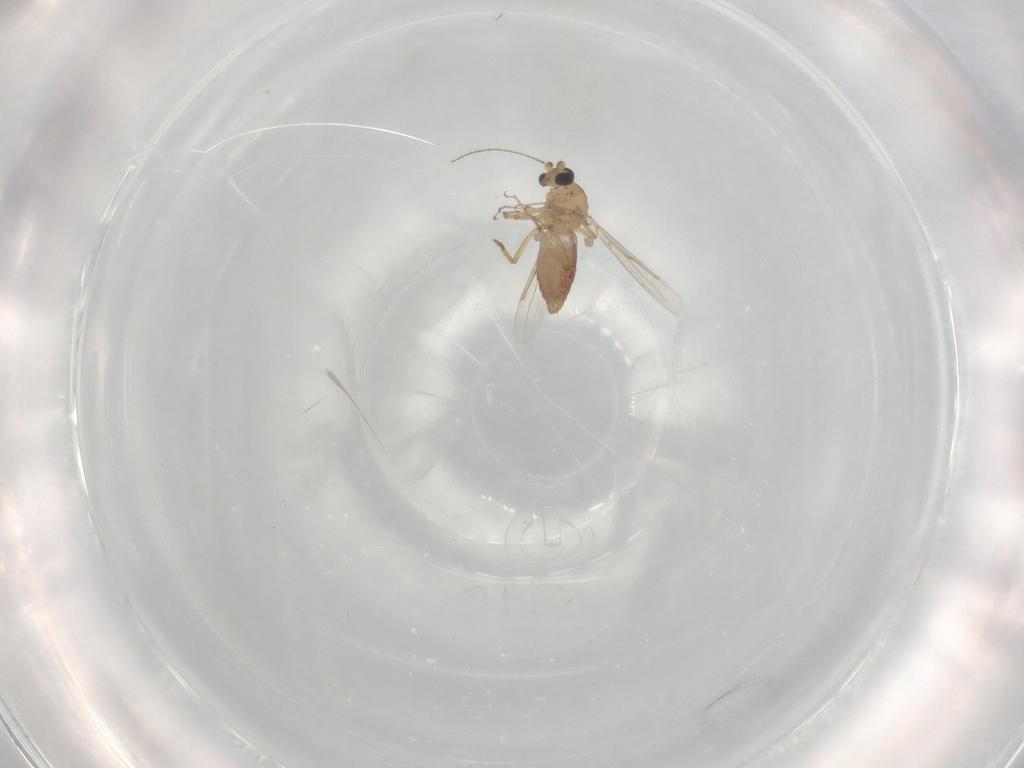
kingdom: Animalia
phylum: Arthropoda
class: Insecta
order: Diptera
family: Ceratopogonidae
